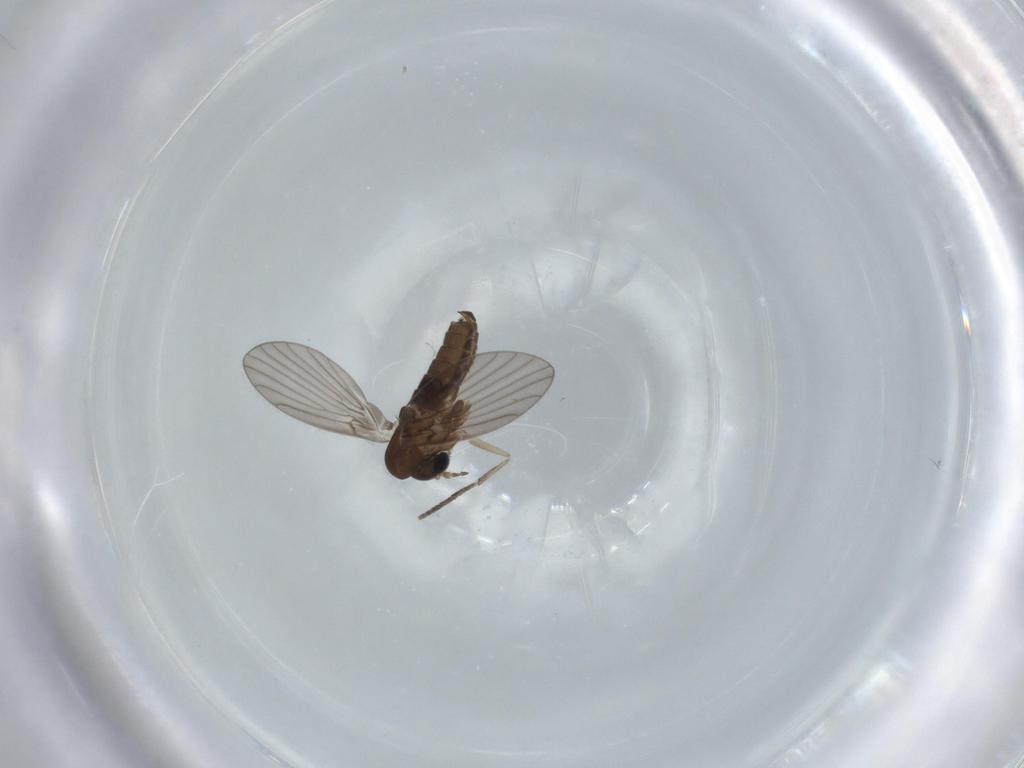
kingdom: Animalia
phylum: Arthropoda
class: Insecta
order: Diptera
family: Psychodidae
